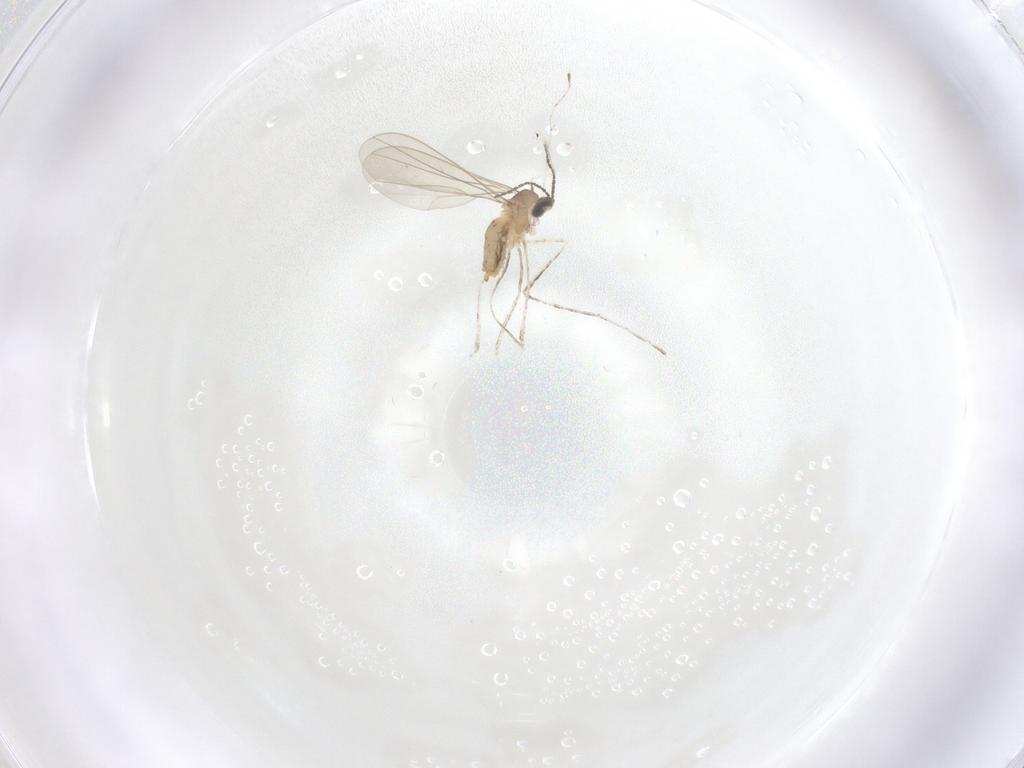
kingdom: Animalia
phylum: Arthropoda
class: Insecta
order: Diptera
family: Cecidomyiidae
